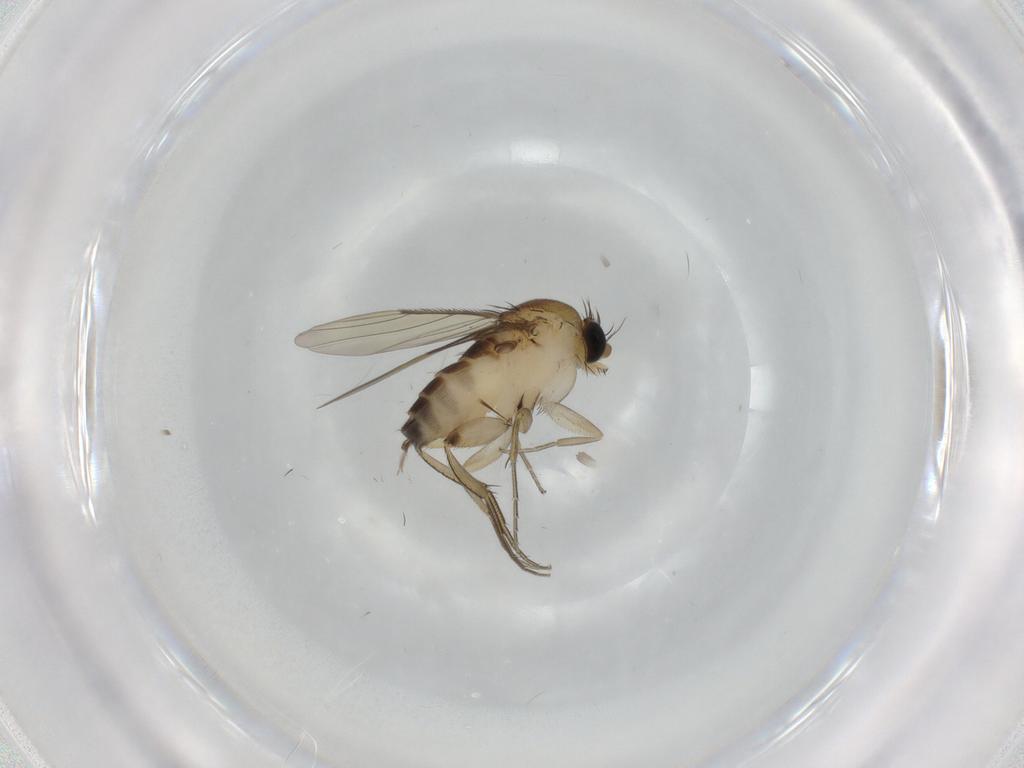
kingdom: Animalia
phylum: Arthropoda
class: Insecta
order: Diptera
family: Phoridae
